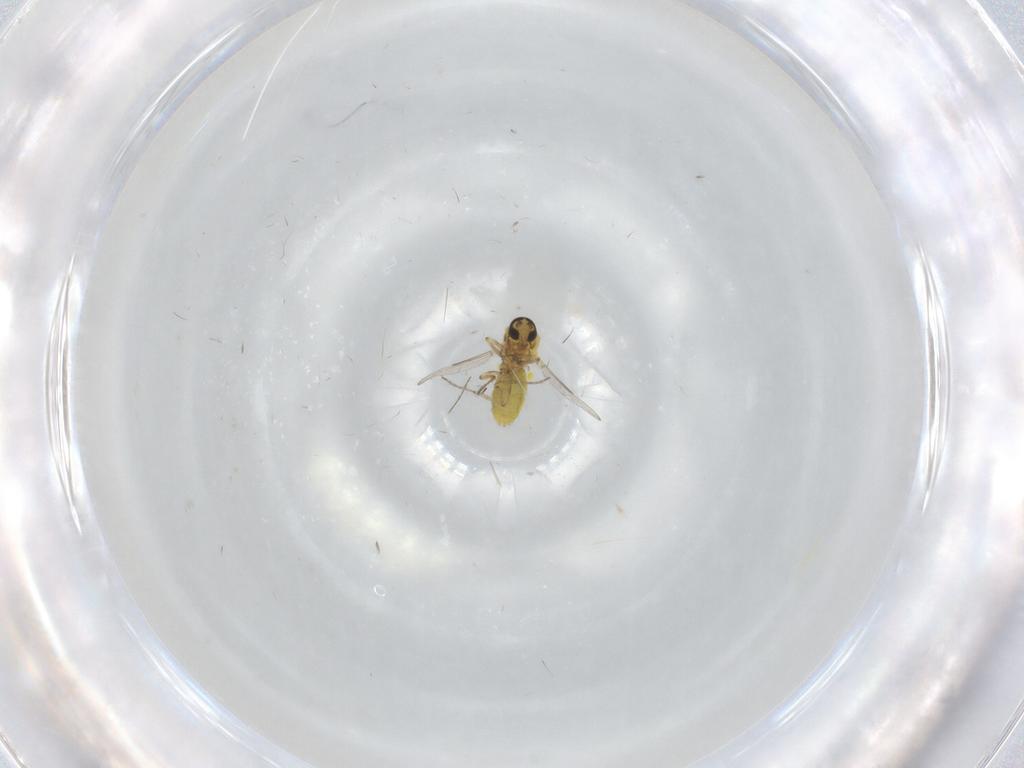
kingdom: Animalia
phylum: Arthropoda
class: Insecta
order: Diptera
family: Ceratopogonidae
